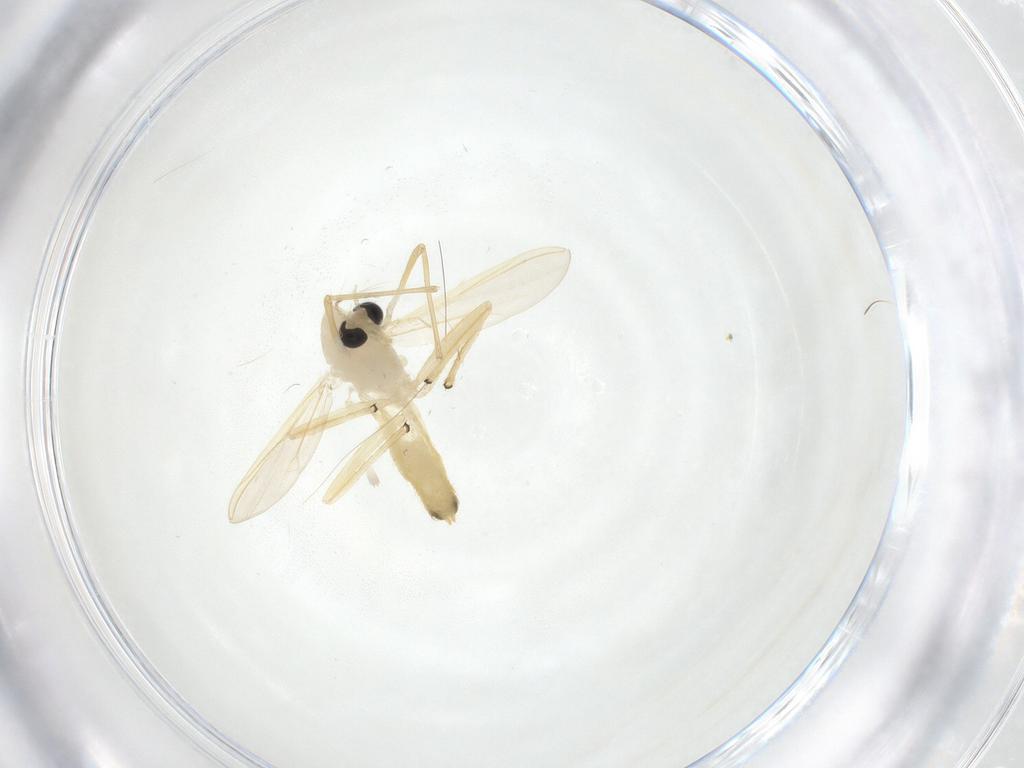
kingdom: Animalia
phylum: Arthropoda
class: Insecta
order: Diptera
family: Chironomidae
